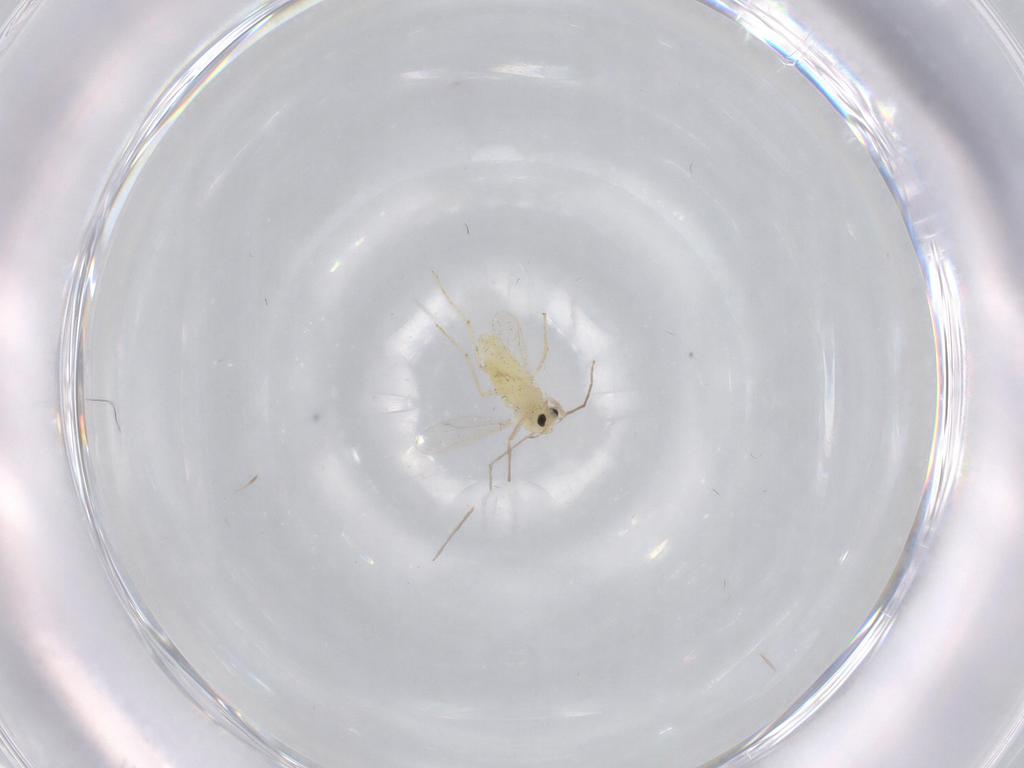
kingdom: Animalia
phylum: Arthropoda
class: Insecta
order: Diptera
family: Chironomidae
